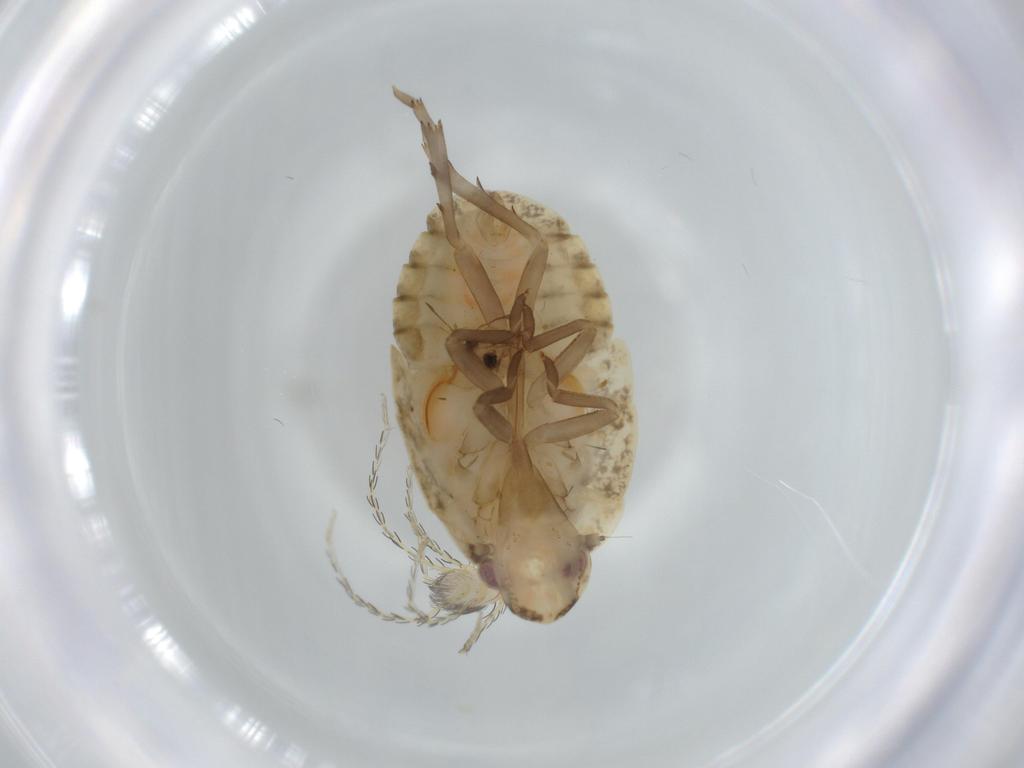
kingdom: Animalia
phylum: Arthropoda
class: Insecta
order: Hemiptera
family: Flatidae
